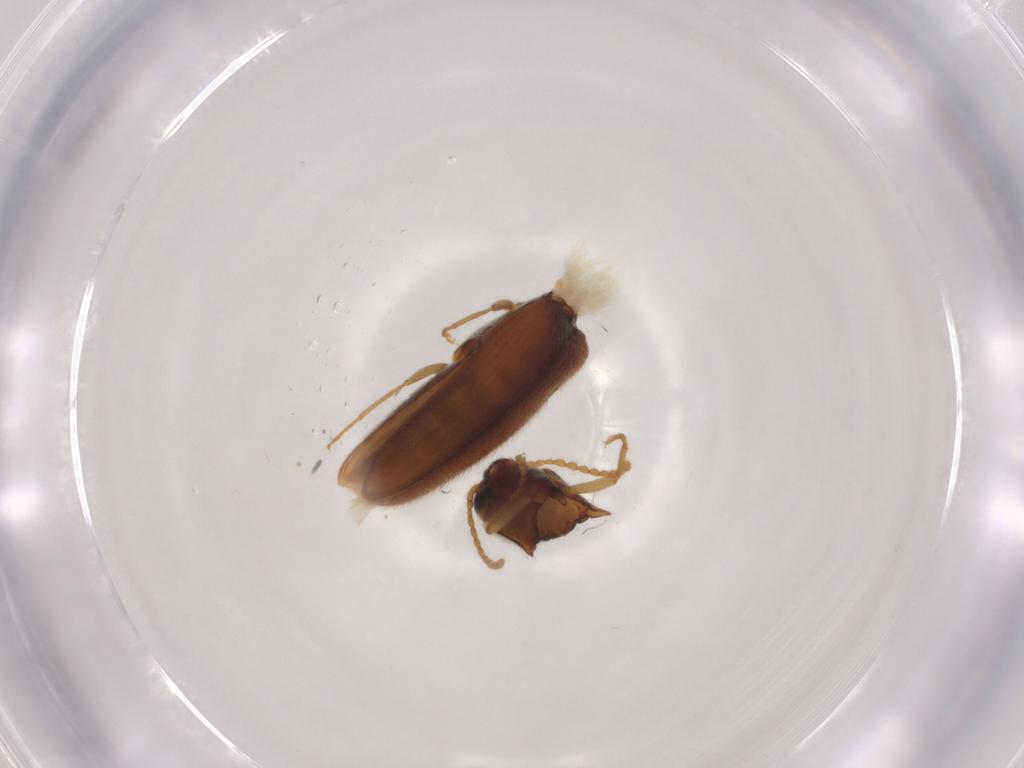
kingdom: Animalia
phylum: Arthropoda
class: Insecta
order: Coleoptera
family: Elateridae
